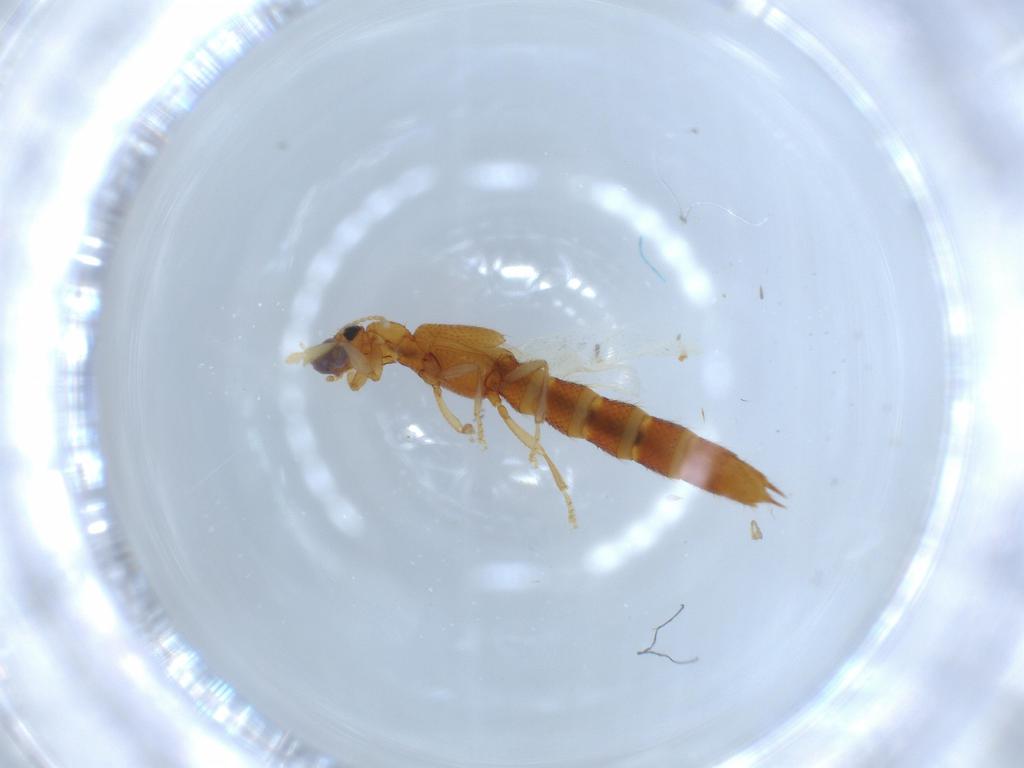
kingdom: Animalia
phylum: Arthropoda
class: Insecta
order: Coleoptera
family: Staphylinidae
